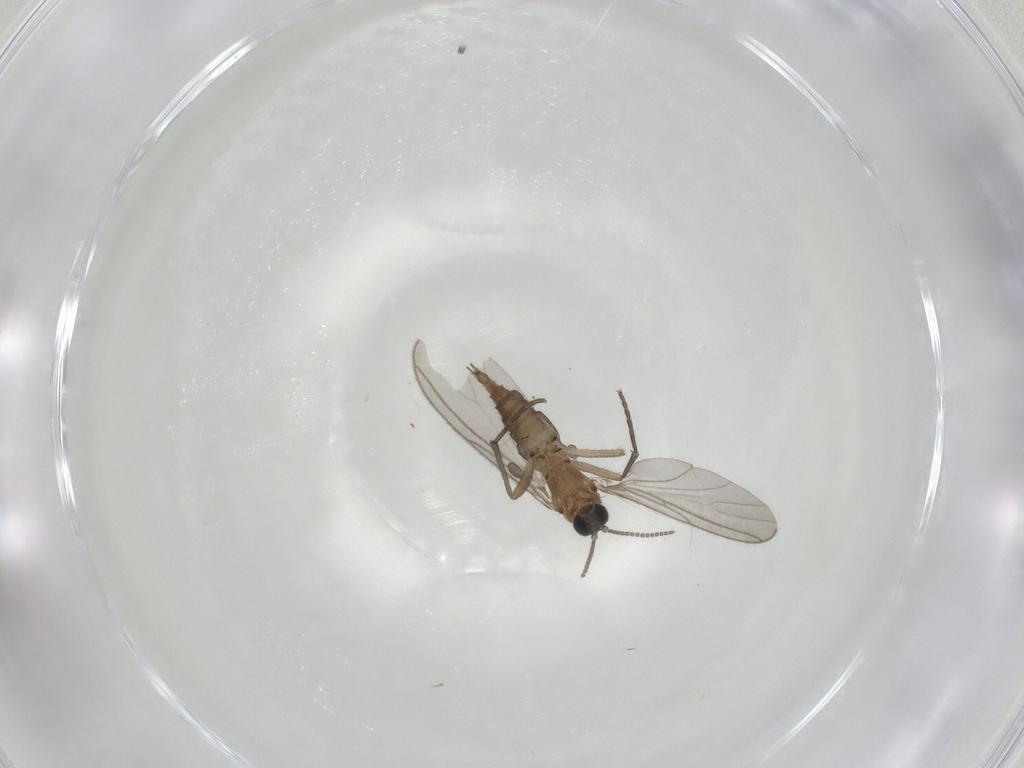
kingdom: Animalia
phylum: Arthropoda
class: Insecta
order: Diptera
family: Sciaridae
